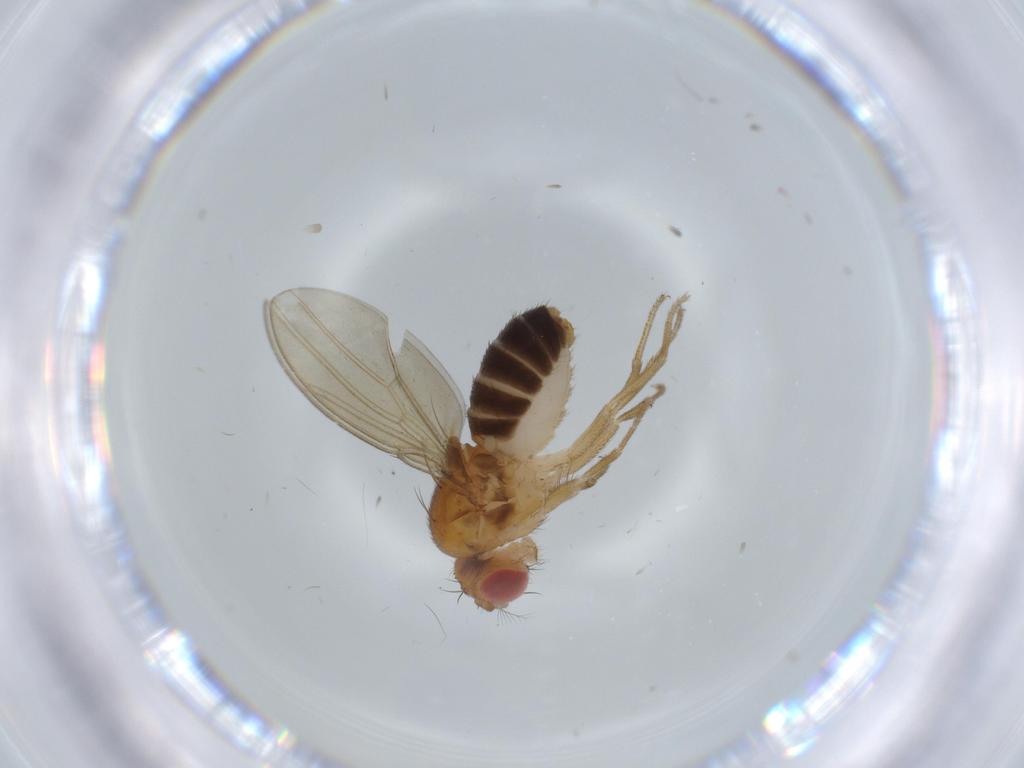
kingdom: Animalia
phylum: Arthropoda
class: Insecta
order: Diptera
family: Drosophilidae
